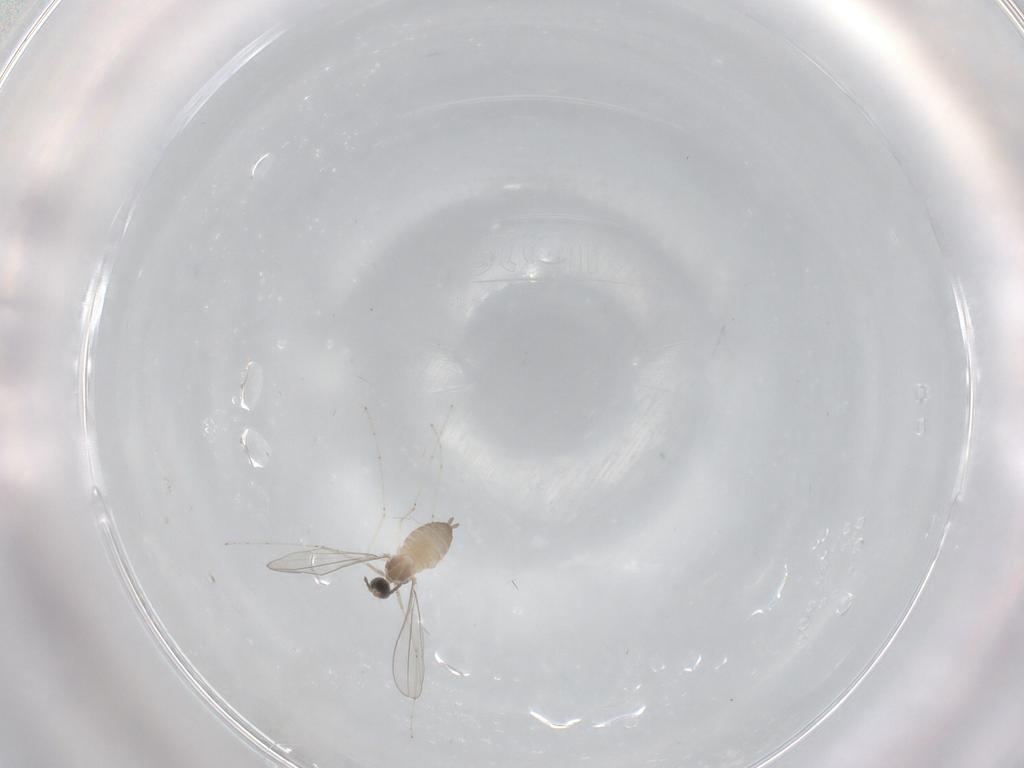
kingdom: Animalia
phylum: Arthropoda
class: Insecta
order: Diptera
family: Cecidomyiidae
